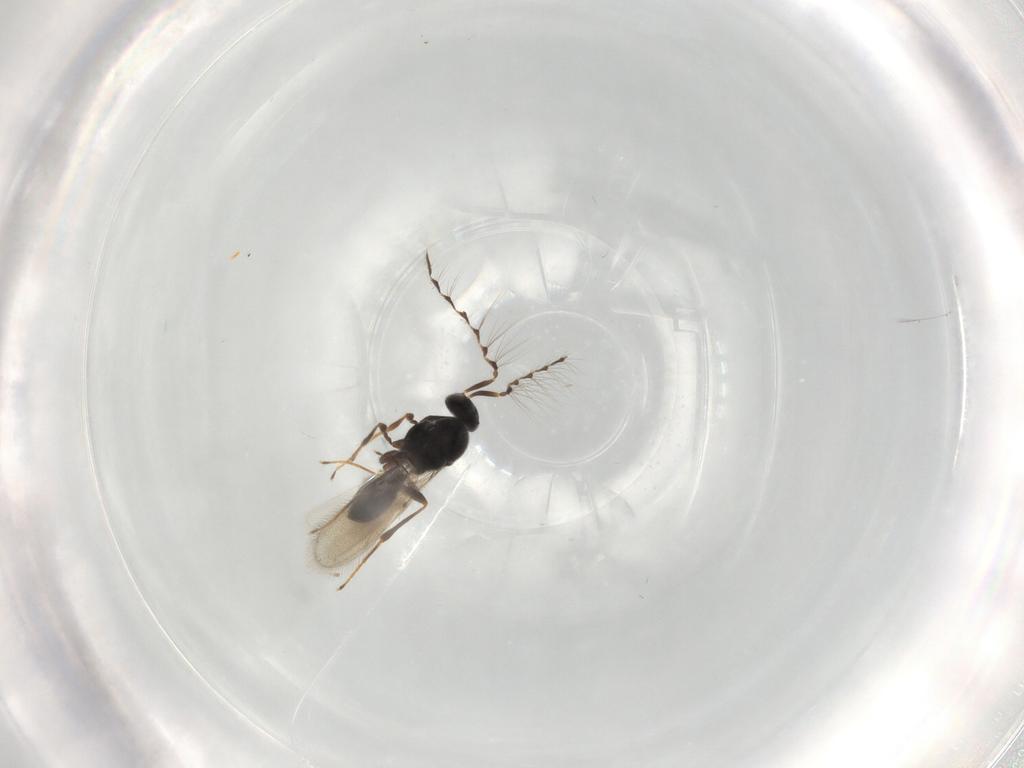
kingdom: Animalia
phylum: Arthropoda
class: Insecta
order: Hymenoptera
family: Platygastridae
